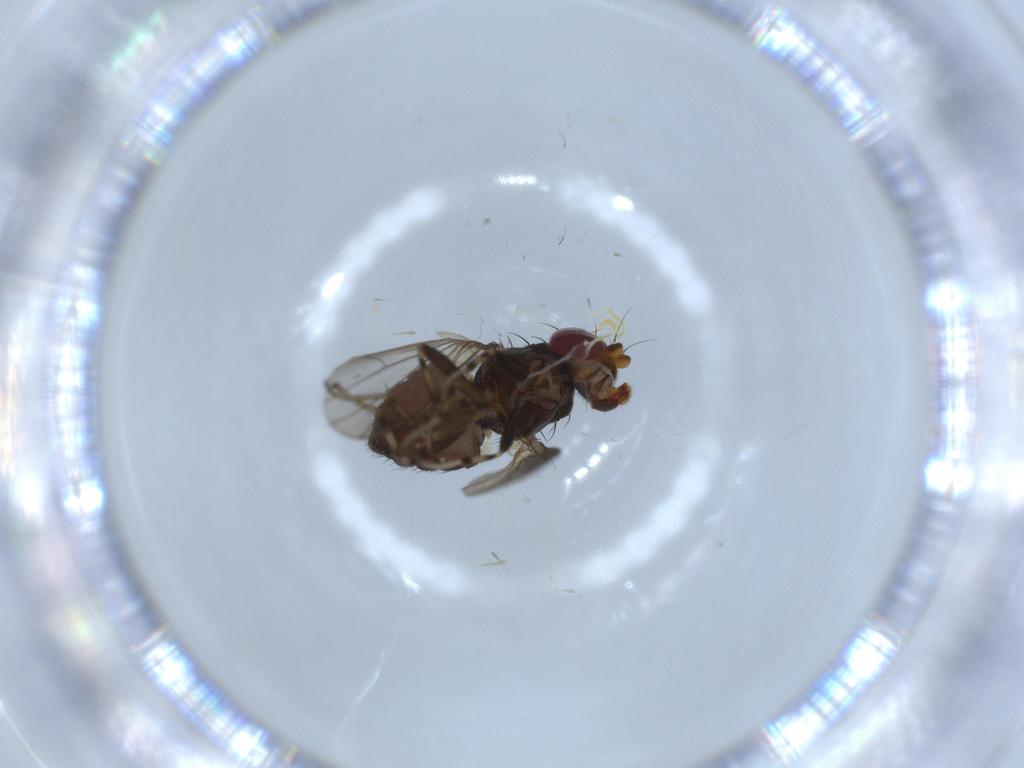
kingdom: Animalia
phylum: Arthropoda
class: Insecta
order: Diptera
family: Heleomyzidae
